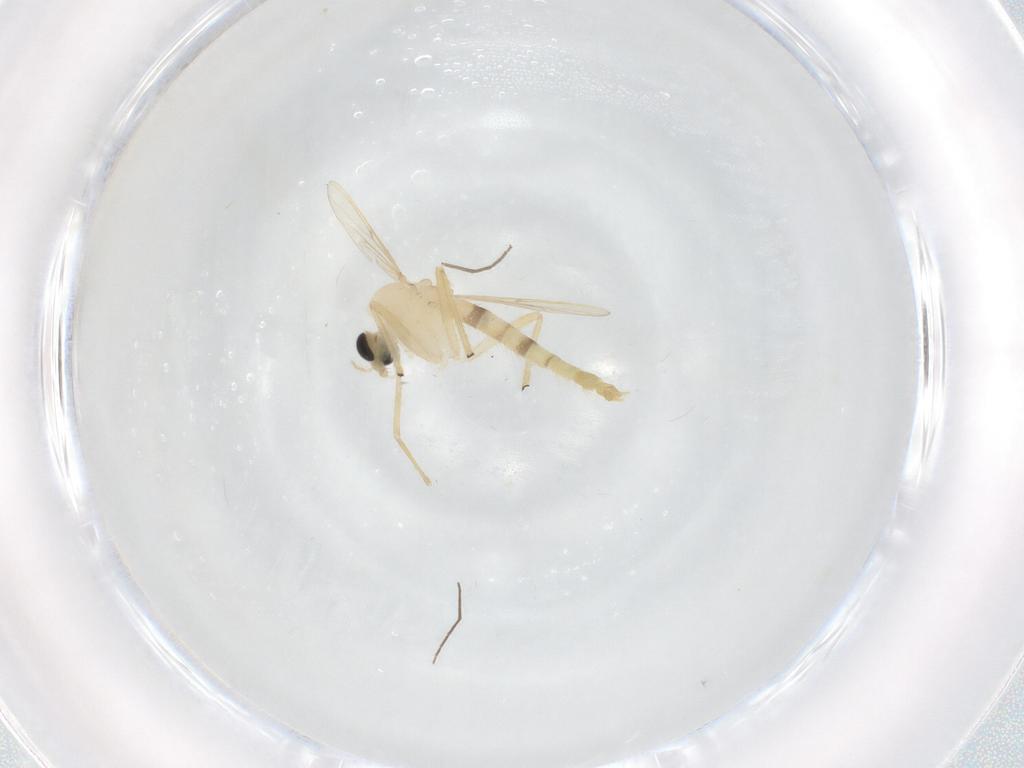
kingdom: Animalia
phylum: Arthropoda
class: Insecta
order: Diptera
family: Chironomidae
